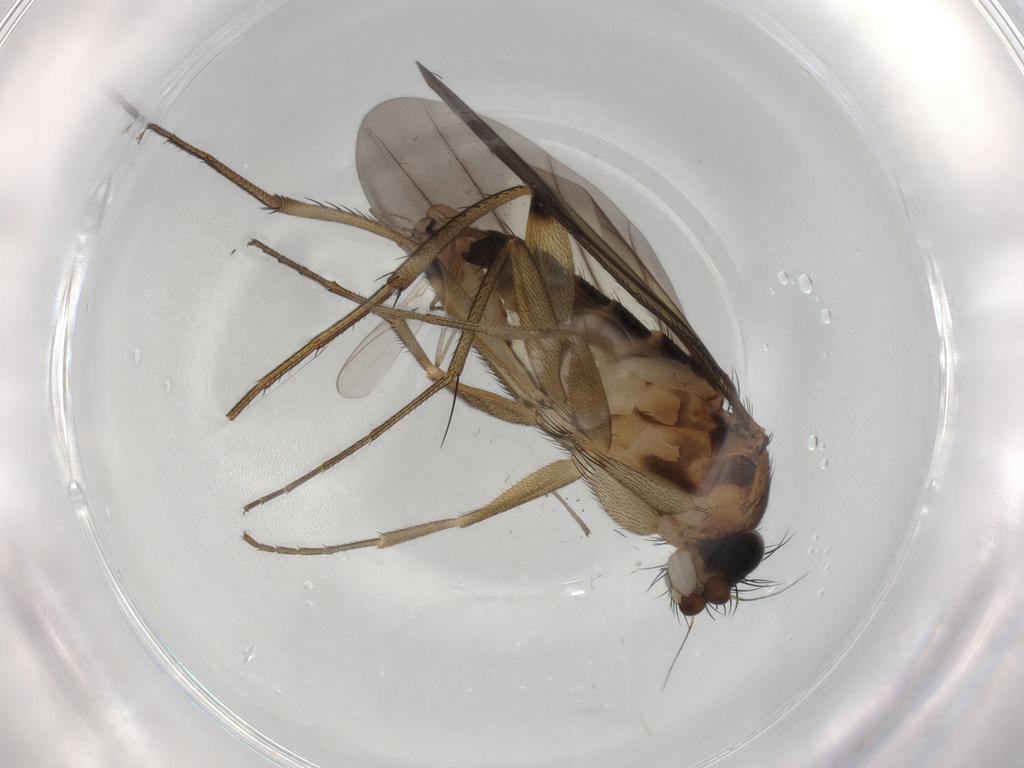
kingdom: Animalia
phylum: Arthropoda
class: Insecta
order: Diptera
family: Chironomidae
